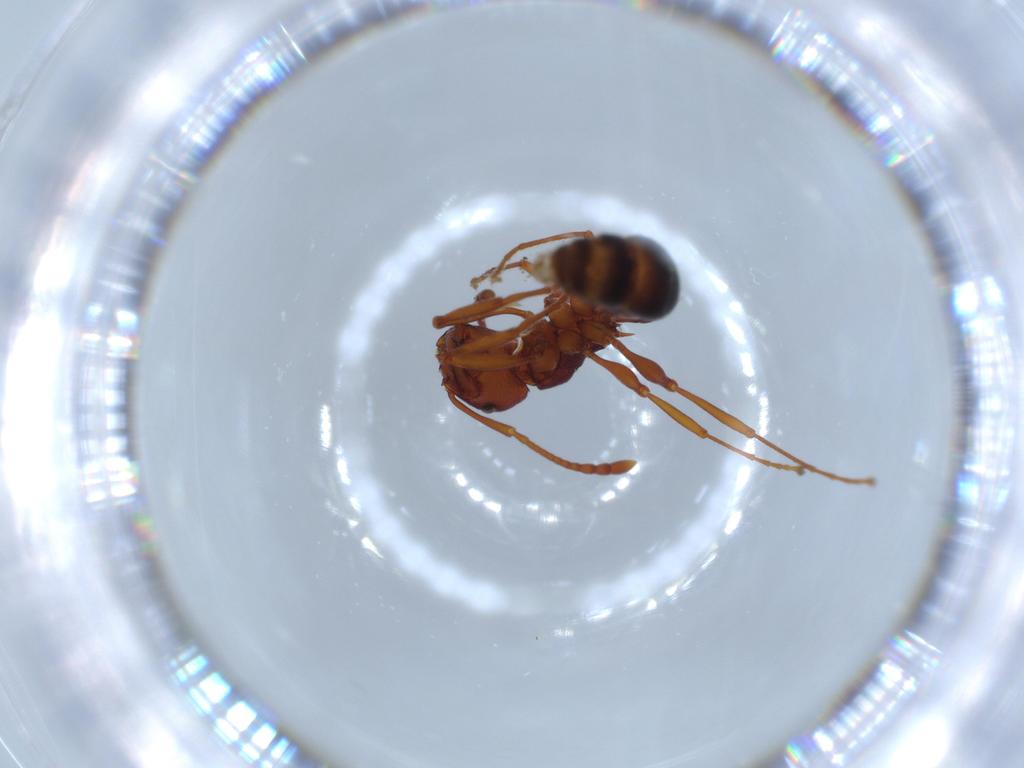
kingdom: Animalia
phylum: Arthropoda
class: Insecta
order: Hymenoptera
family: Formicidae
